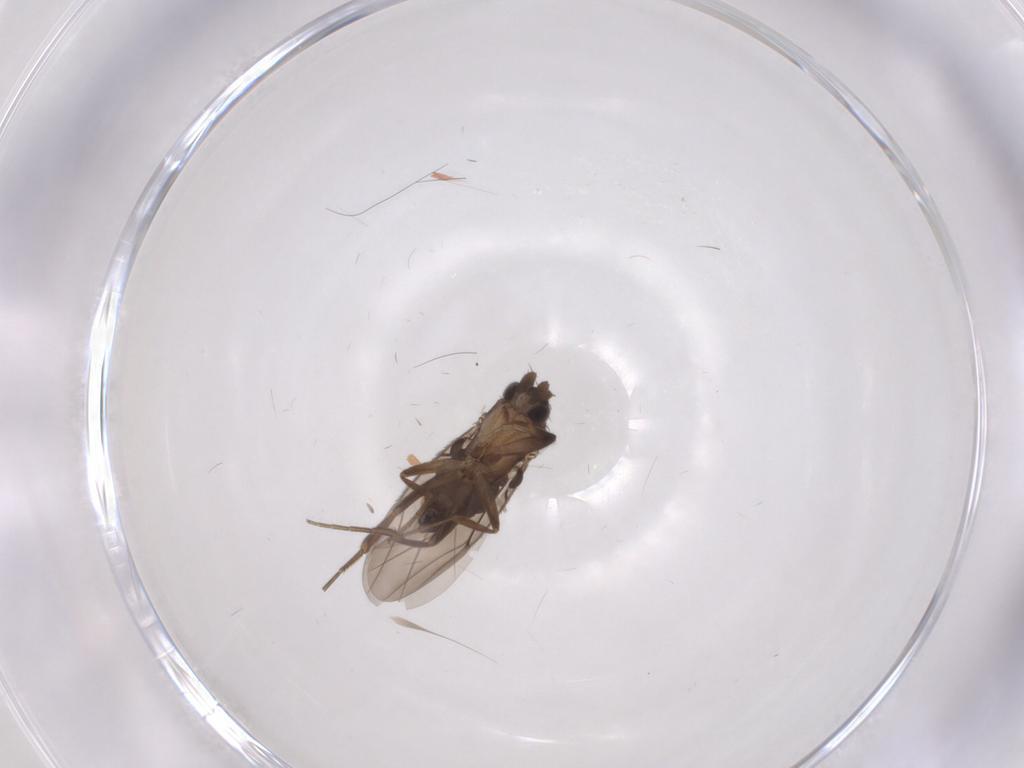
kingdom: Animalia
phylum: Arthropoda
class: Insecta
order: Diptera
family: Phoridae
